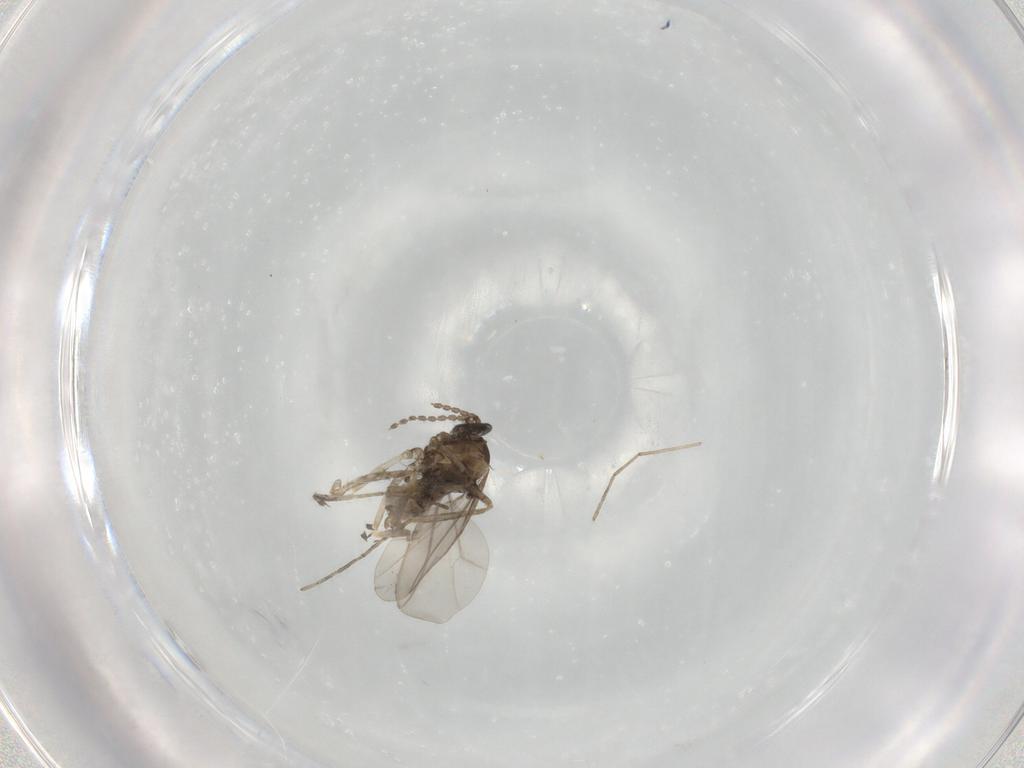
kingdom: Animalia
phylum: Arthropoda
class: Insecta
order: Diptera
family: Cecidomyiidae
